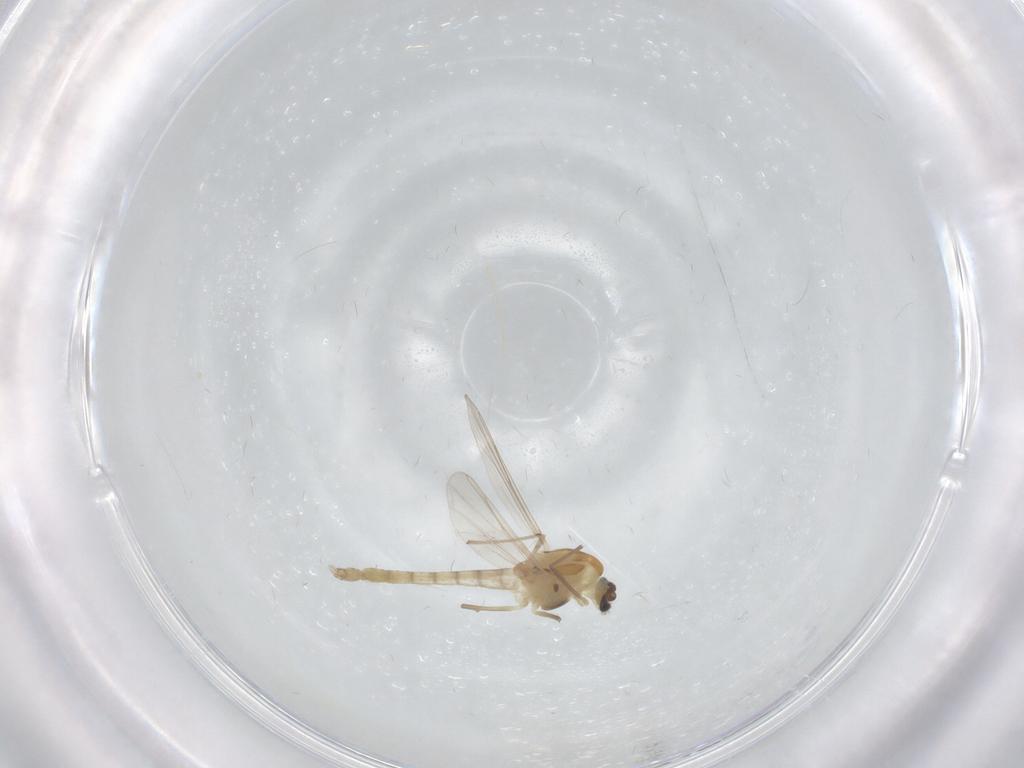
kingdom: Animalia
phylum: Arthropoda
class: Insecta
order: Diptera
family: Chironomidae
